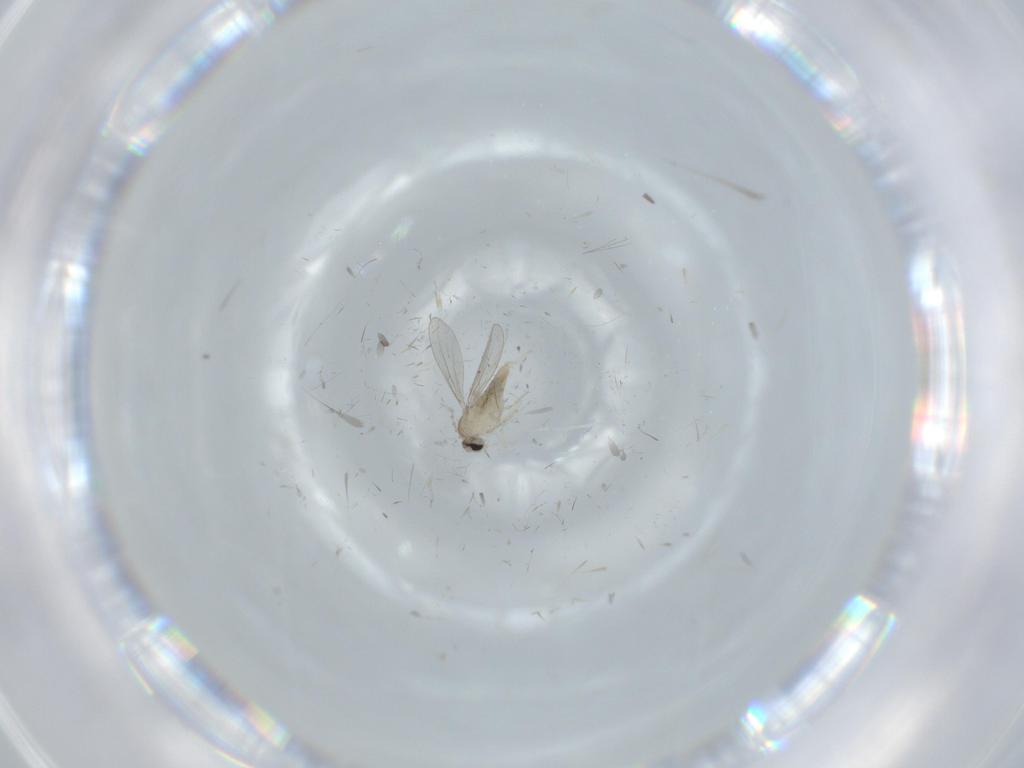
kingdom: Animalia
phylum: Arthropoda
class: Insecta
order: Diptera
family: Cecidomyiidae
